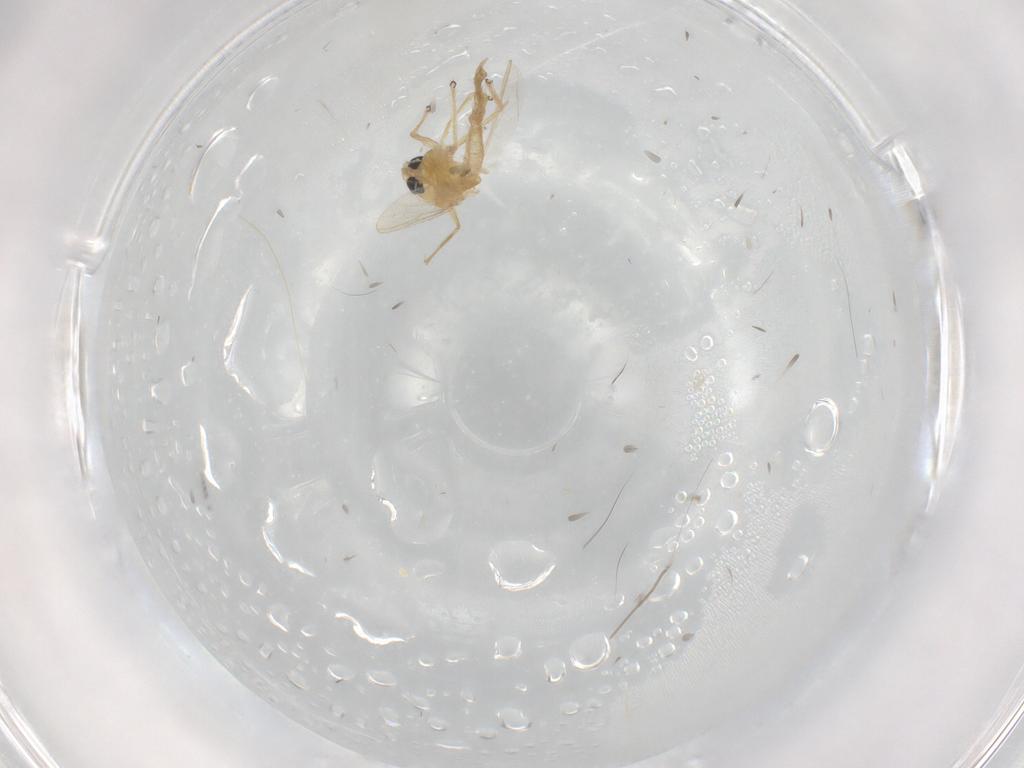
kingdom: Animalia
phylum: Arthropoda
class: Insecta
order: Diptera
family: Chironomidae
